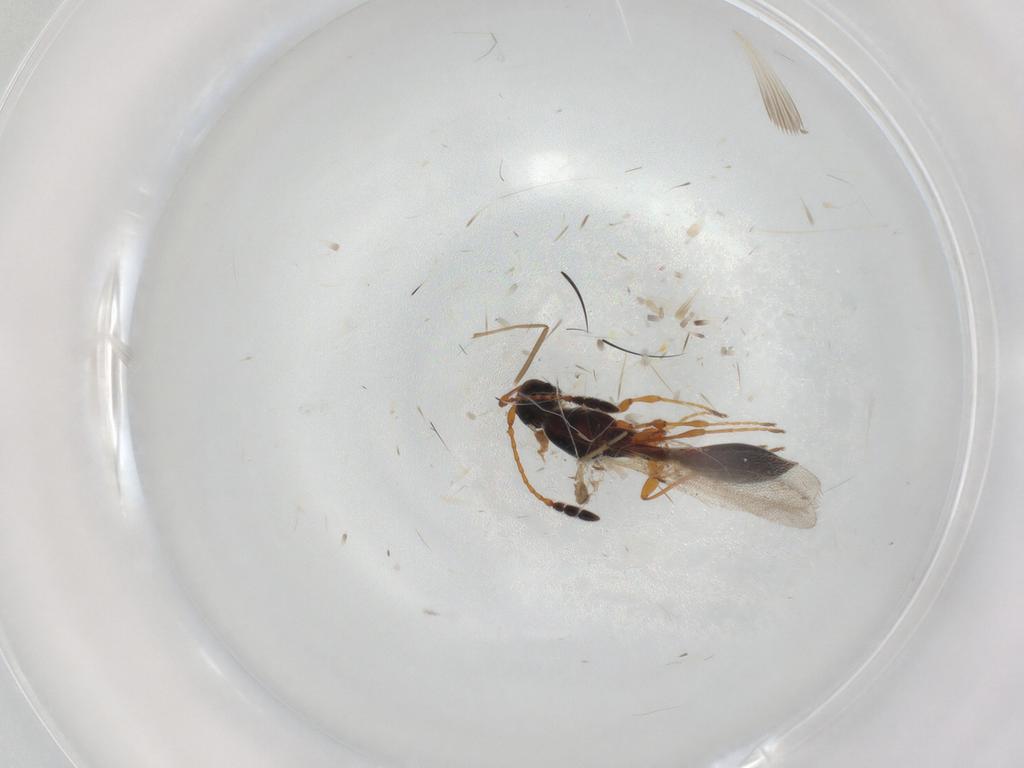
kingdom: Animalia
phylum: Arthropoda
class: Insecta
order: Hymenoptera
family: Diapriidae
